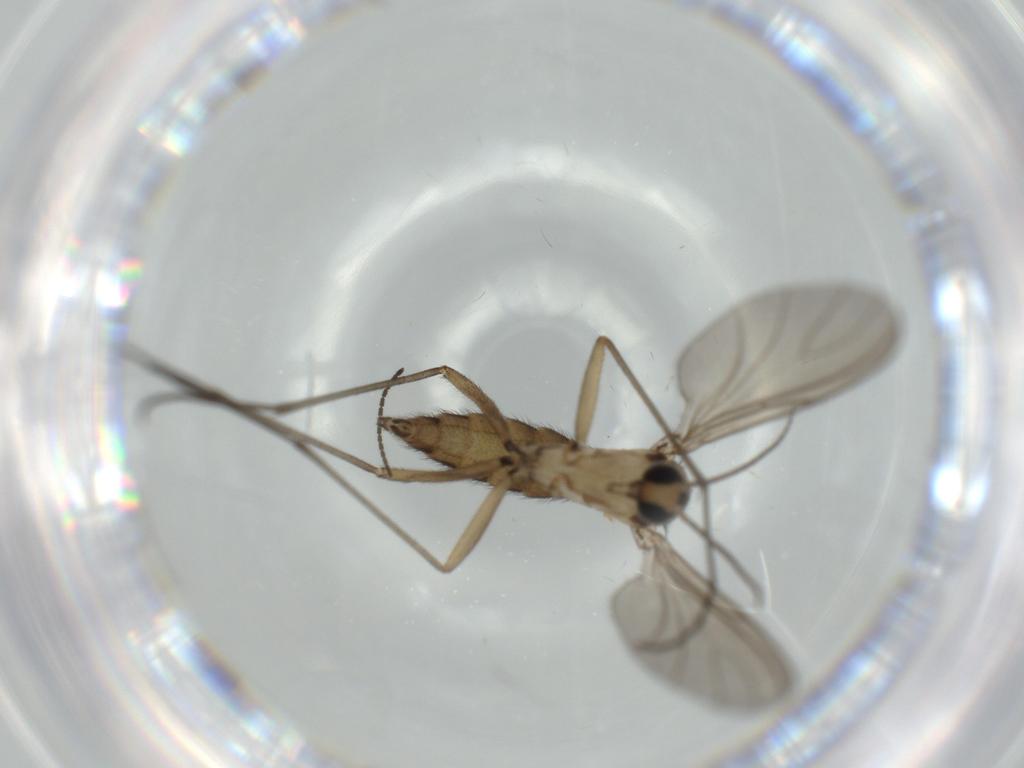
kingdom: Animalia
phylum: Arthropoda
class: Insecta
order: Diptera
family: Sciaridae
